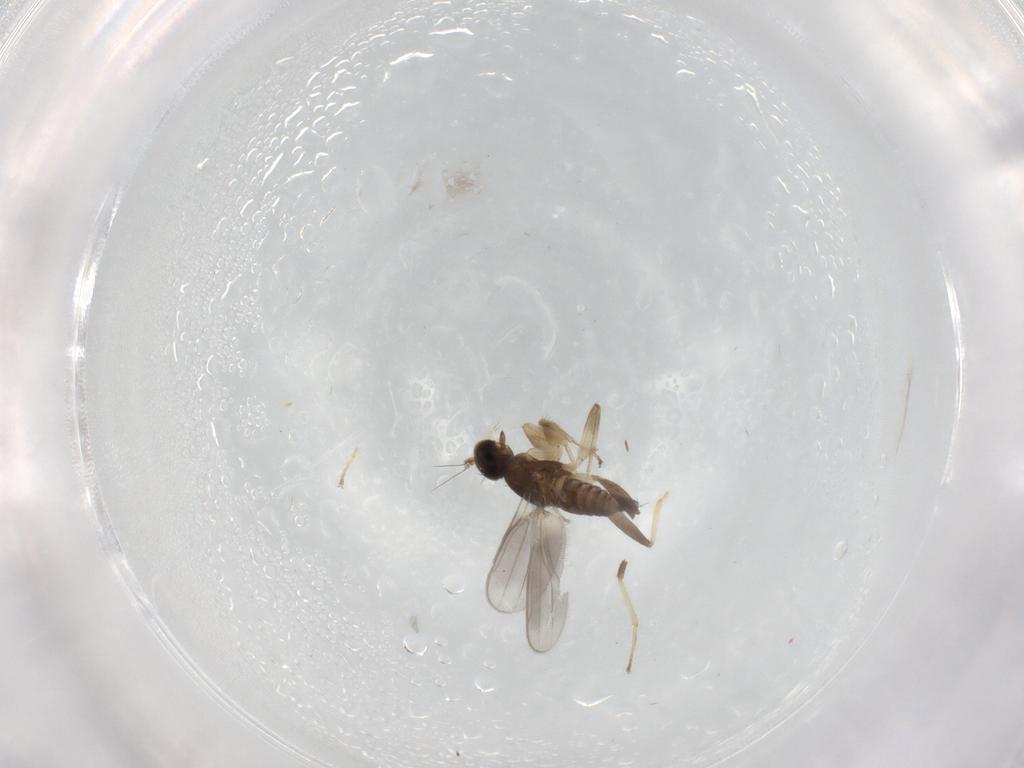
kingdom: Animalia
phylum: Arthropoda
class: Insecta
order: Diptera
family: Hybotidae
